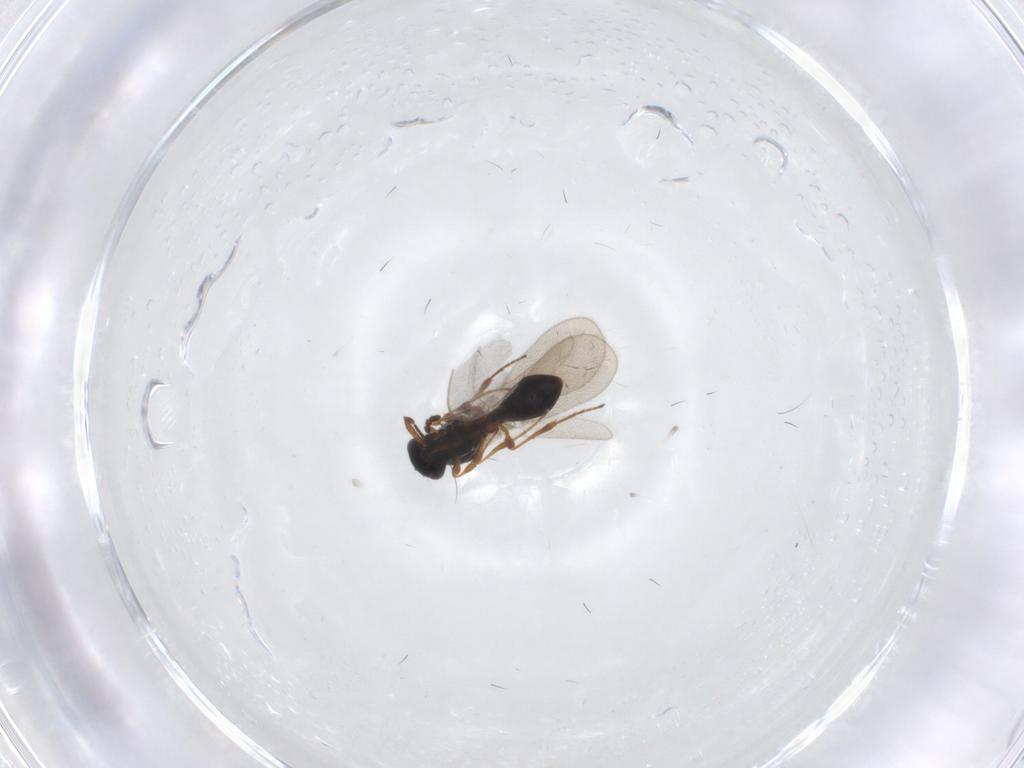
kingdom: Animalia
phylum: Arthropoda
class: Insecta
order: Hymenoptera
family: Platygastridae
